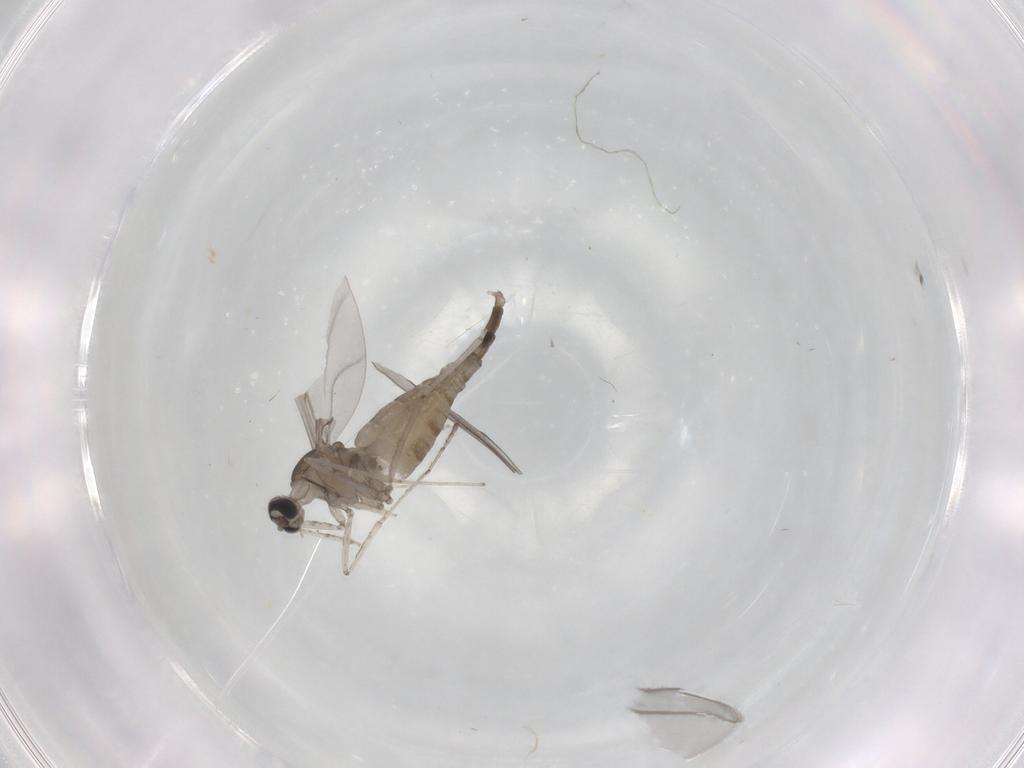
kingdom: Animalia
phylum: Arthropoda
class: Insecta
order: Diptera
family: Cecidomyiidae
